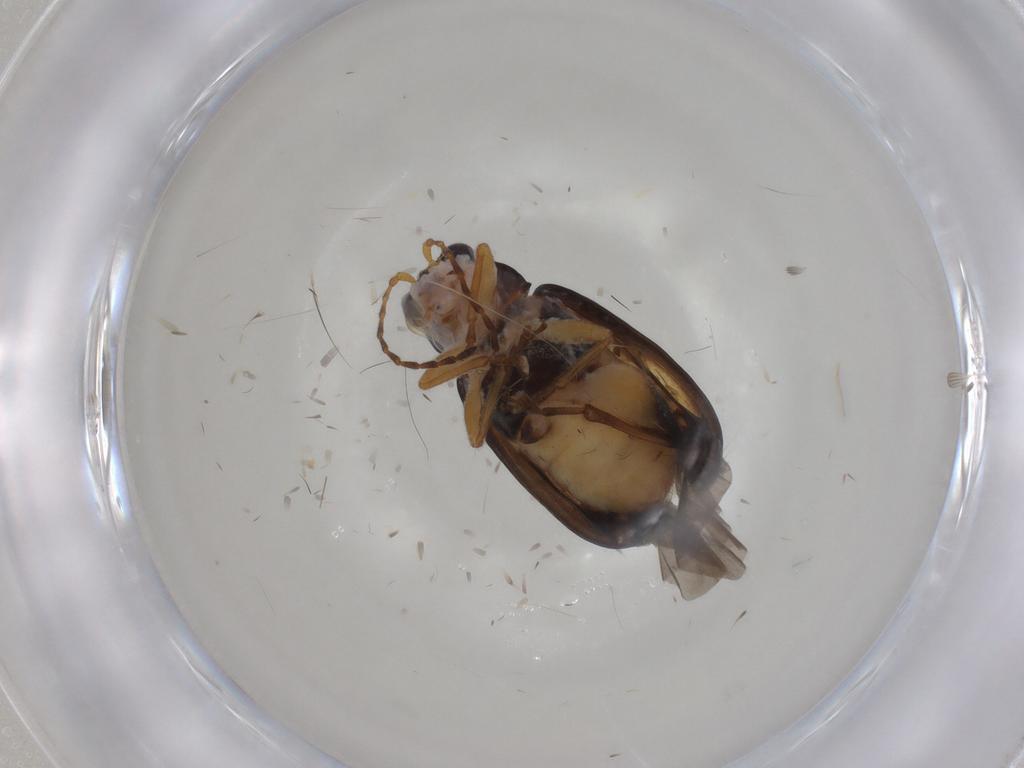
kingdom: Animalia
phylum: Arthropoda
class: Insecta
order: Coleoptera
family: Chrysomelidae
